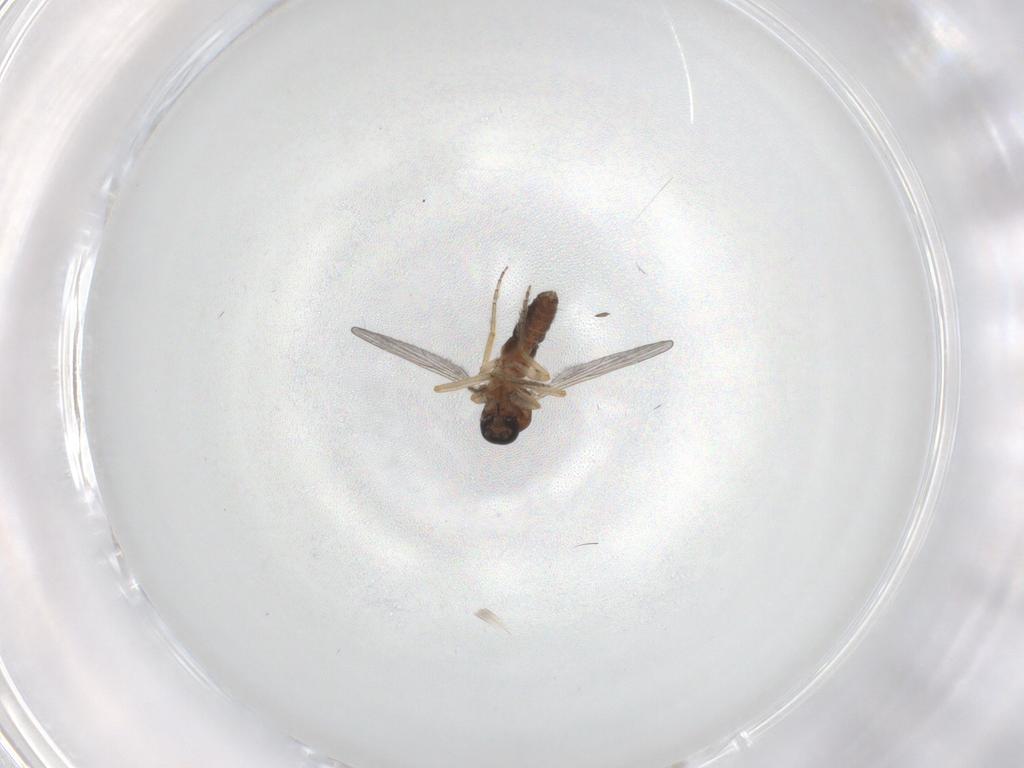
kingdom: Animalia
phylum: Arthropoda
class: Insecta
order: Diptera
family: Ceratopogonidae
